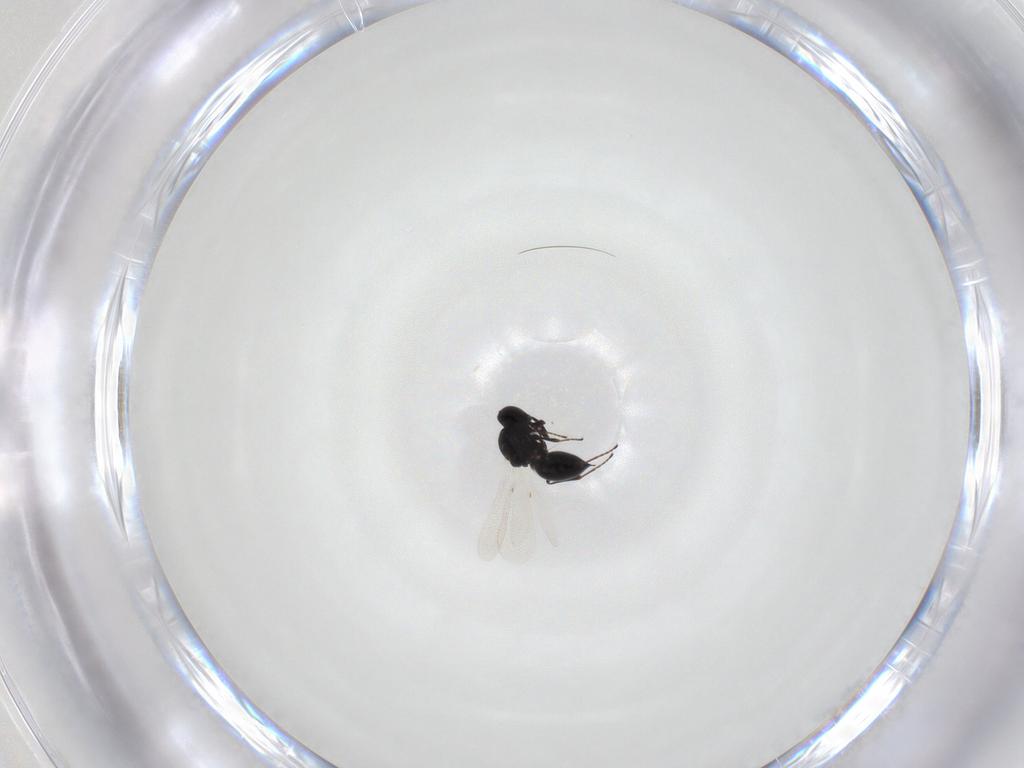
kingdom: Animalia
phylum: Arthropoda
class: Insecta
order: Hymenoptera
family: Platygastridae
